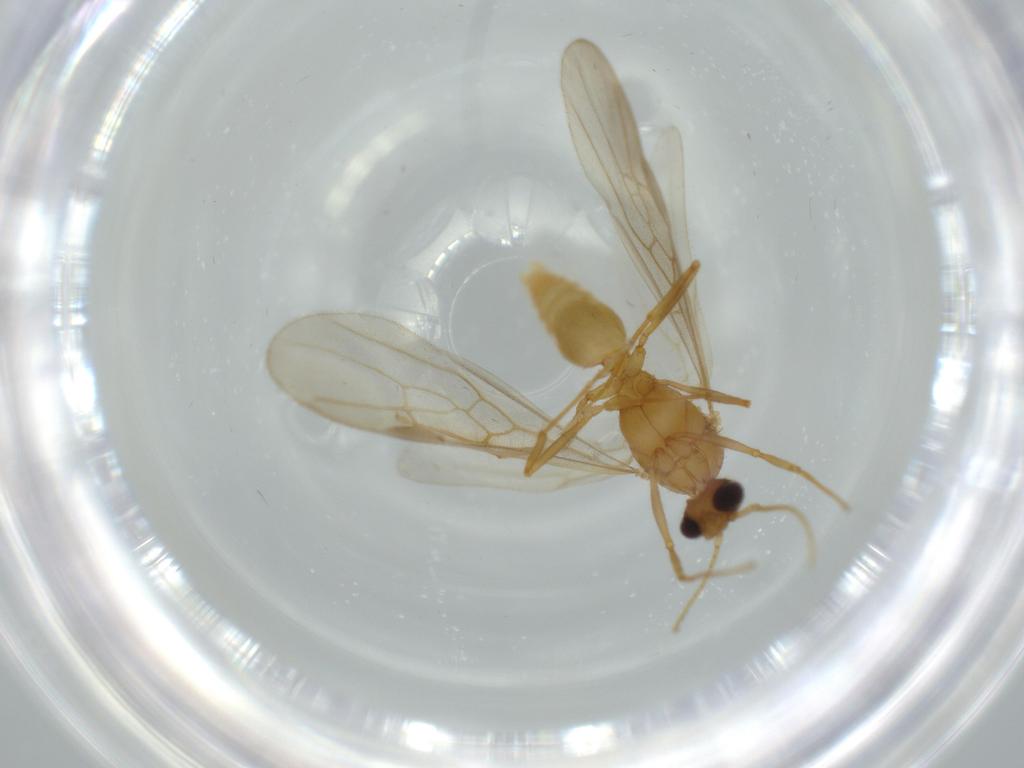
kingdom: Animalia
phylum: Arthropoda
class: Insecta
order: Hymenoptera
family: Formicidae
